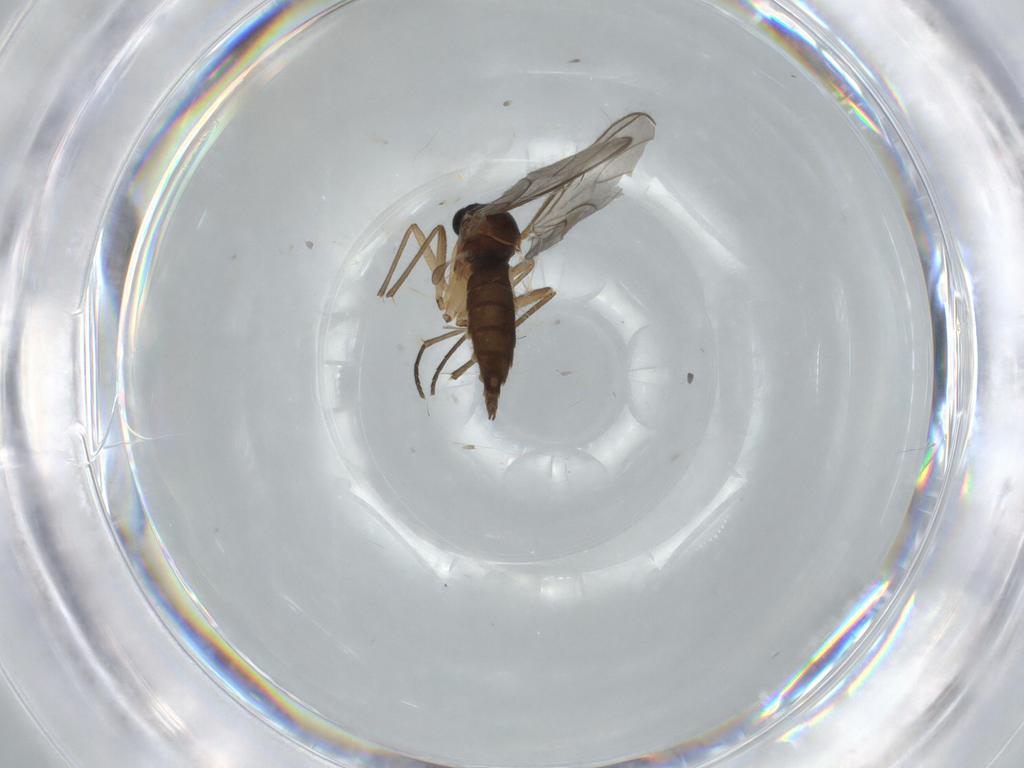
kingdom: Animalia
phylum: Arthropoda
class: Insecta
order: Diptera
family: Sciaridae
